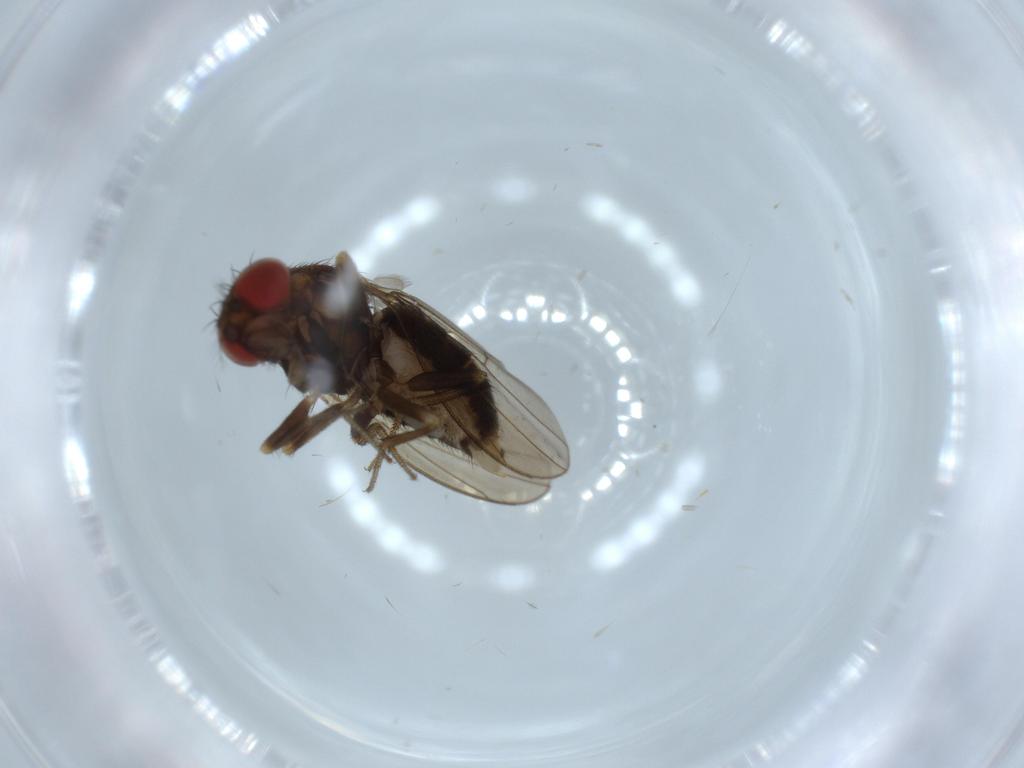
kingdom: Animalia
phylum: Arthropoda
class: Insecta
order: Diptera
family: Drosophilidae
